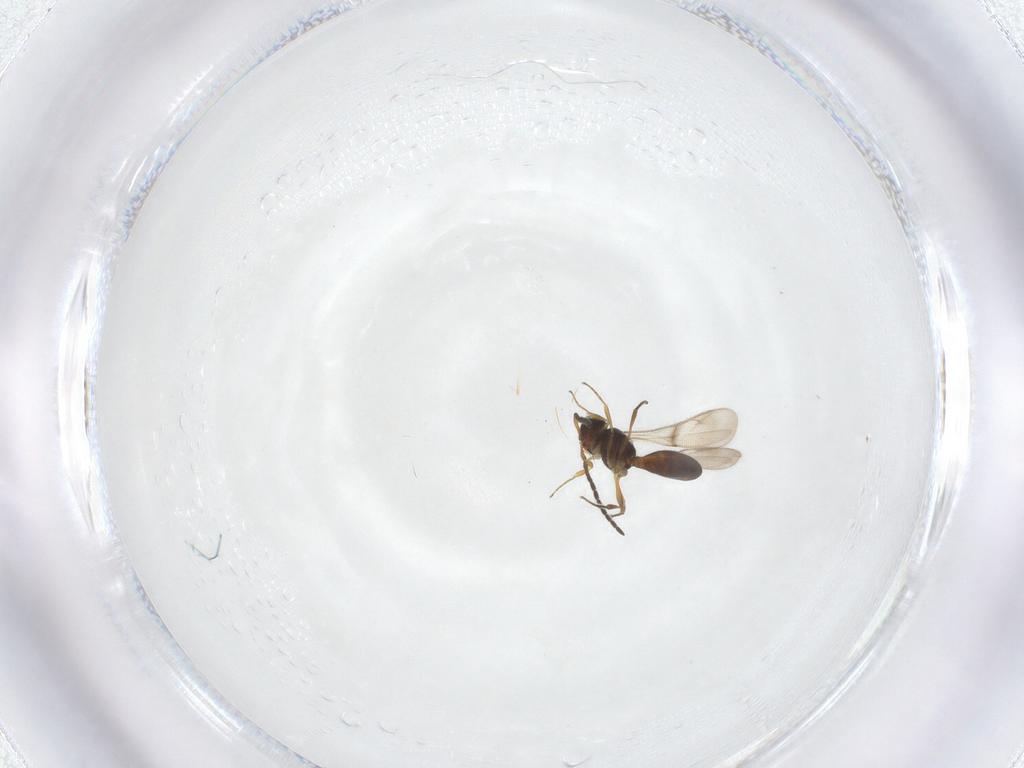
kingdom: Animalia
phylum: Arthropoda
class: Insecta
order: Hymenoptera
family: Scelionidae
